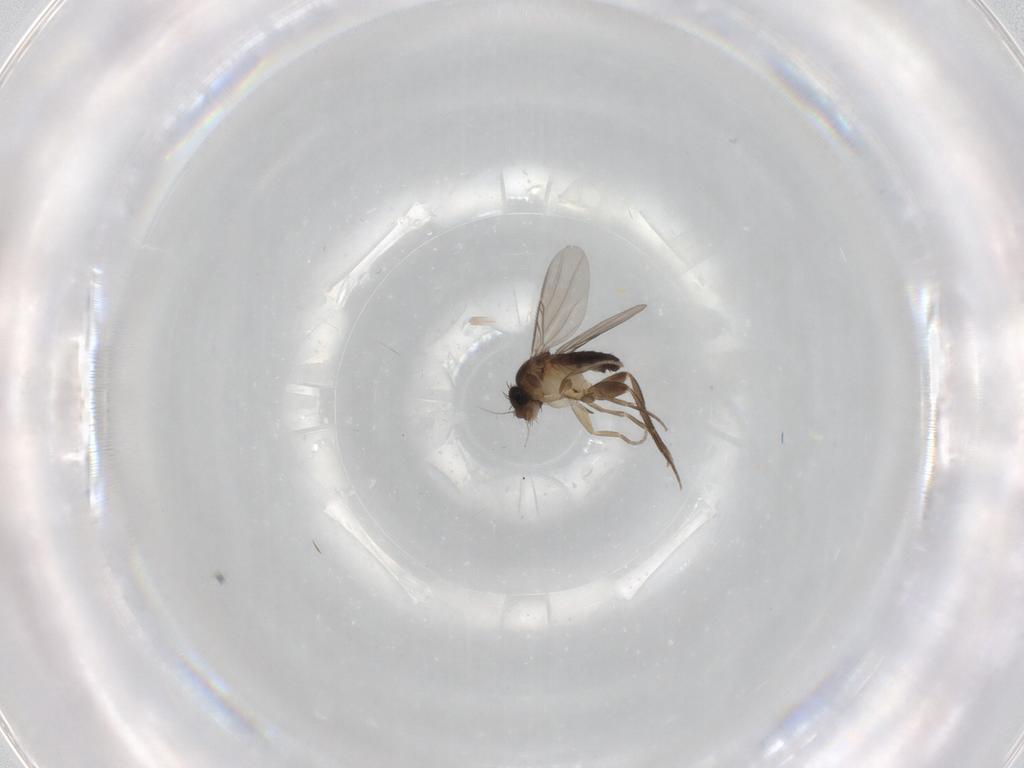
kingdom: Animalia
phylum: Arthropoda
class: Insecta
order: Diptera
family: Phoridae
